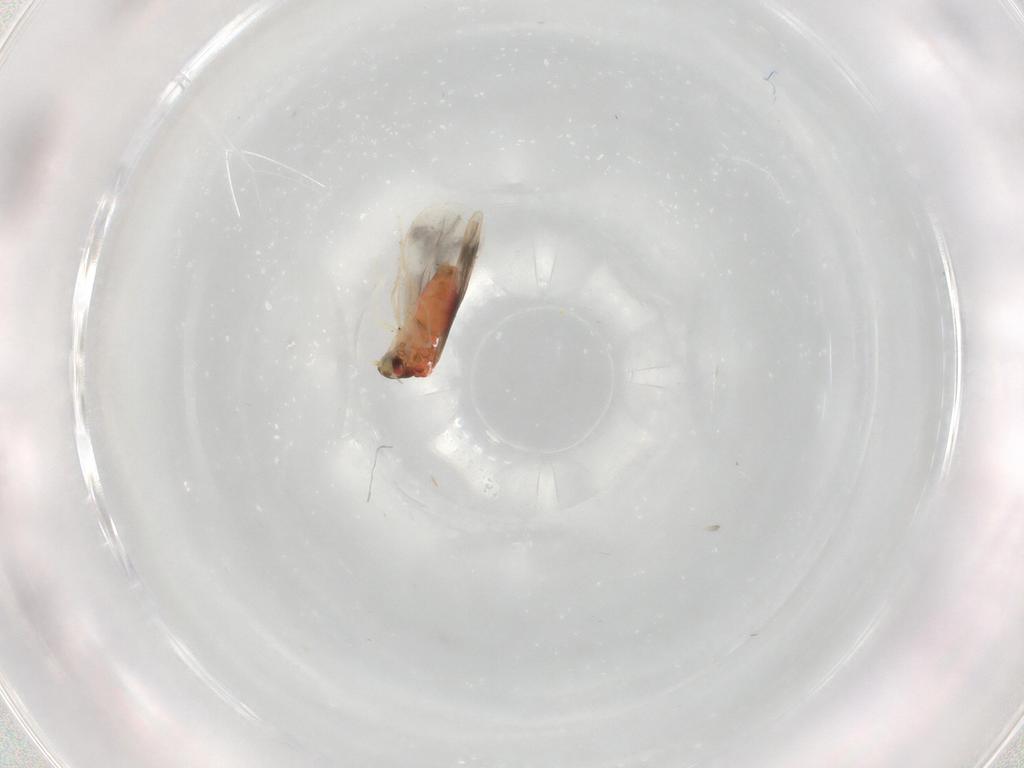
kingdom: Animalia
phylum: Arthropoda
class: Insecta
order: Hemiptera
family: Aleyrodidae
